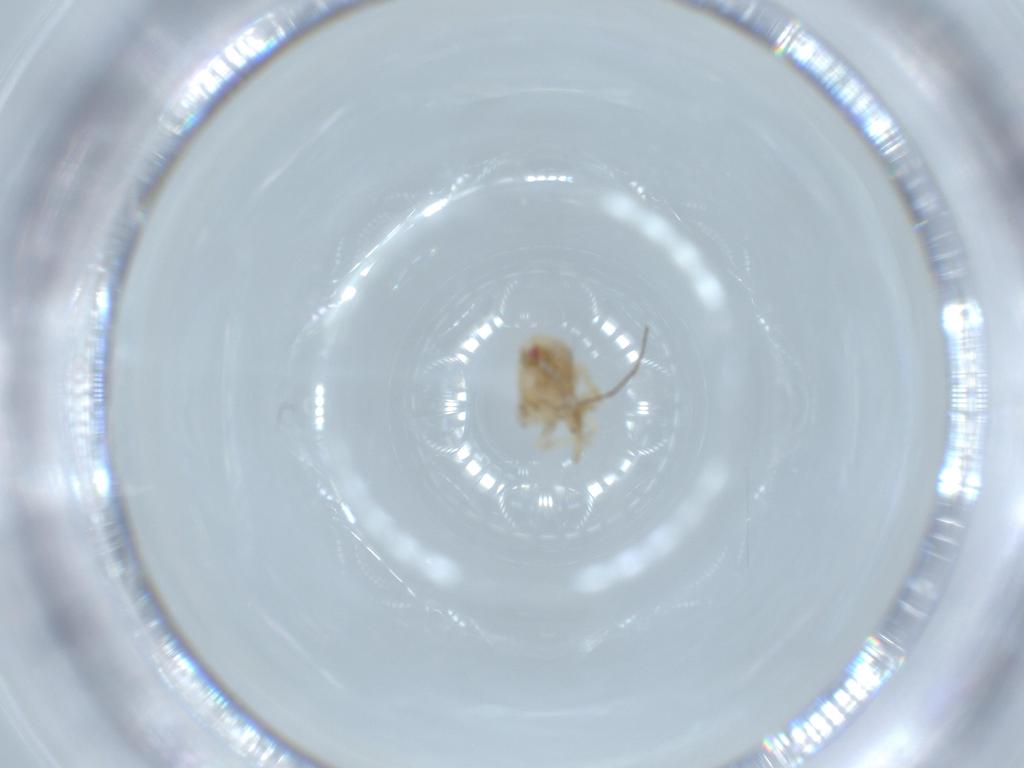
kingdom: Animalia
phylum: Arthropoda
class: Insecta
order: Hemiptera
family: Acanaloniidae
